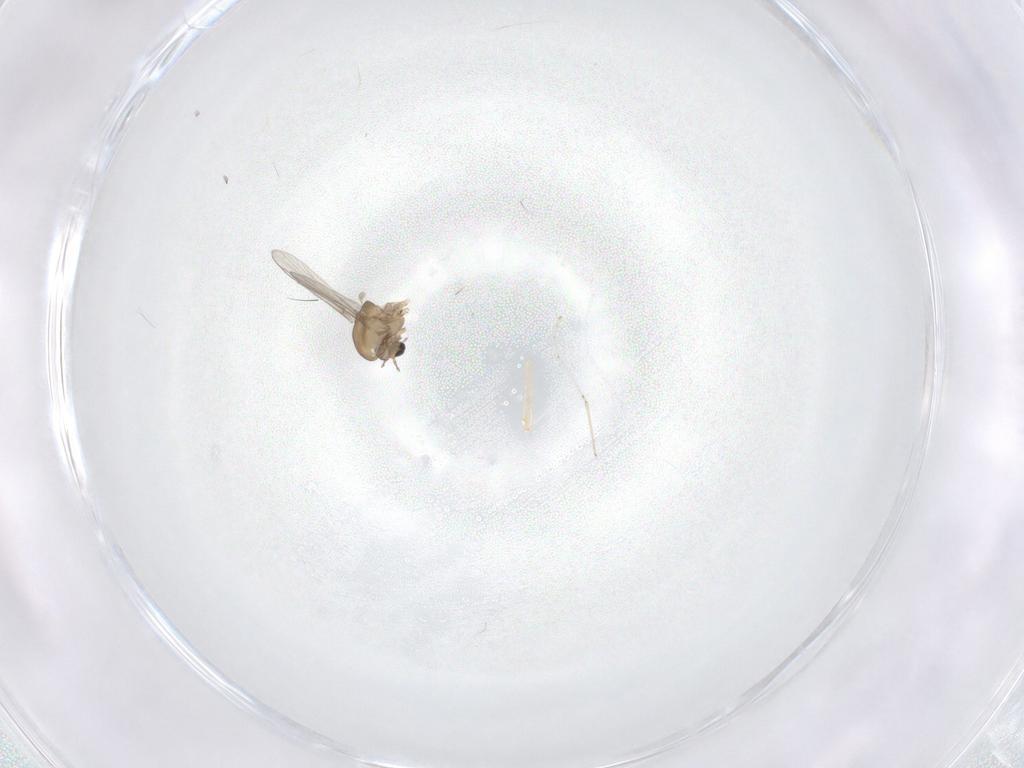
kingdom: Animalia
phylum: Arthropoda
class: Insecta
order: Diptera
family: Chironomidae
